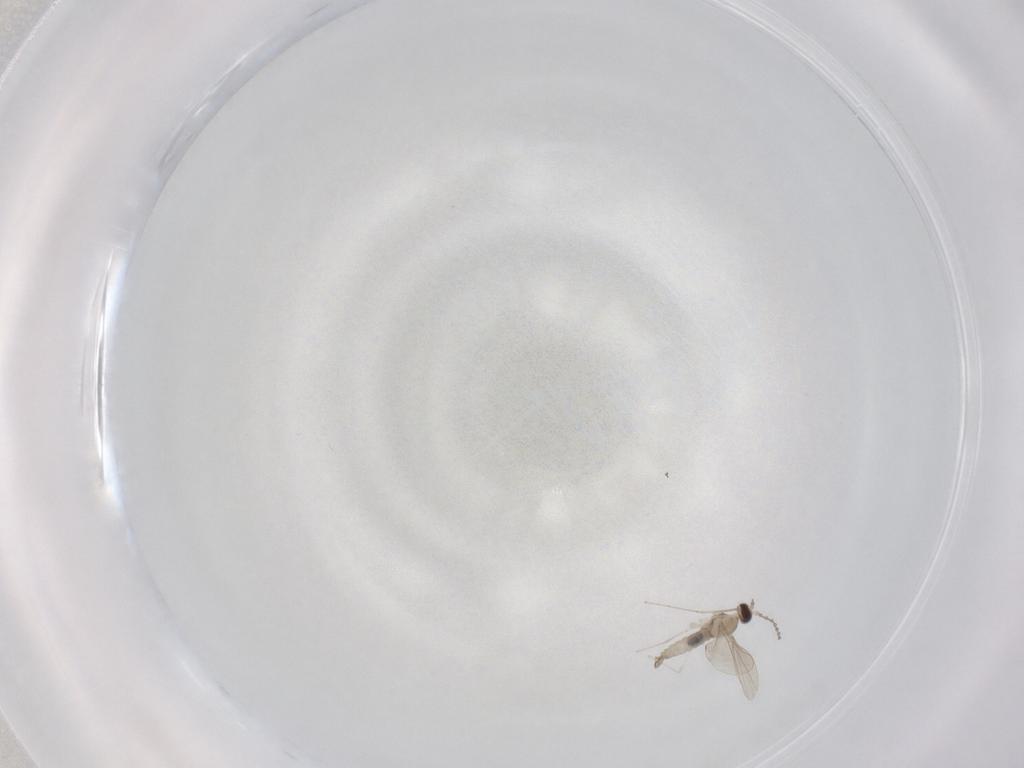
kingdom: Animalia
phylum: Arthropoda
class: Insecta
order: Diptera
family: Cecidomyiidae
